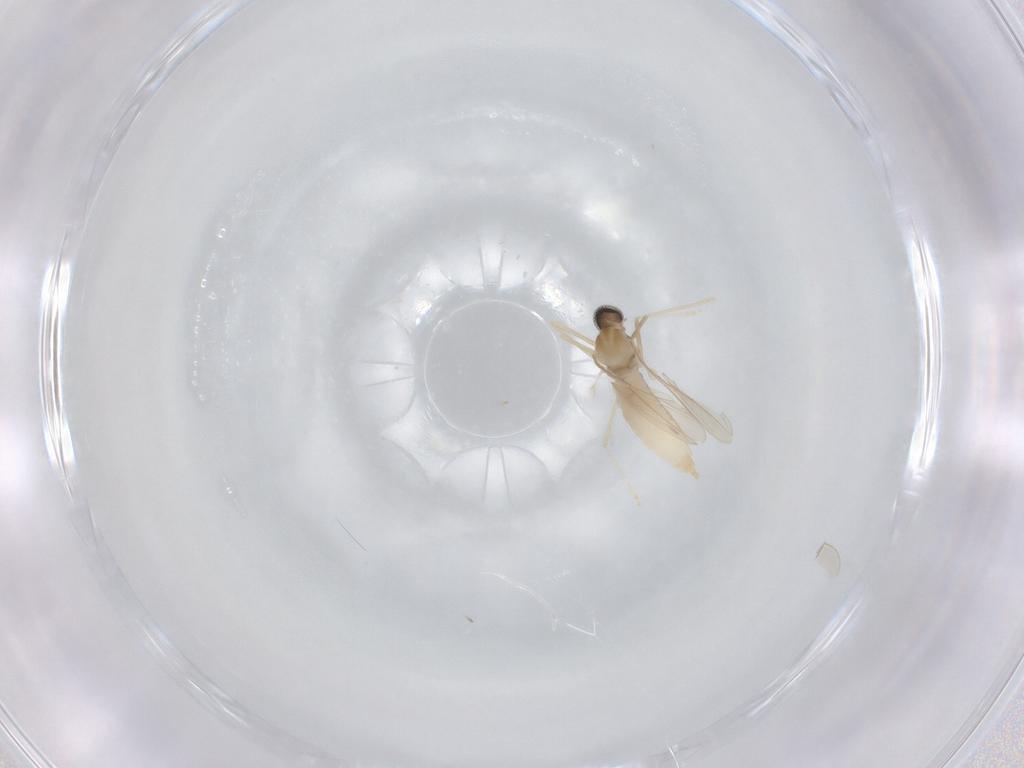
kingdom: Animalia
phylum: Arthropoda
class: Insecta
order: Diptera
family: Cecidomyiidae
